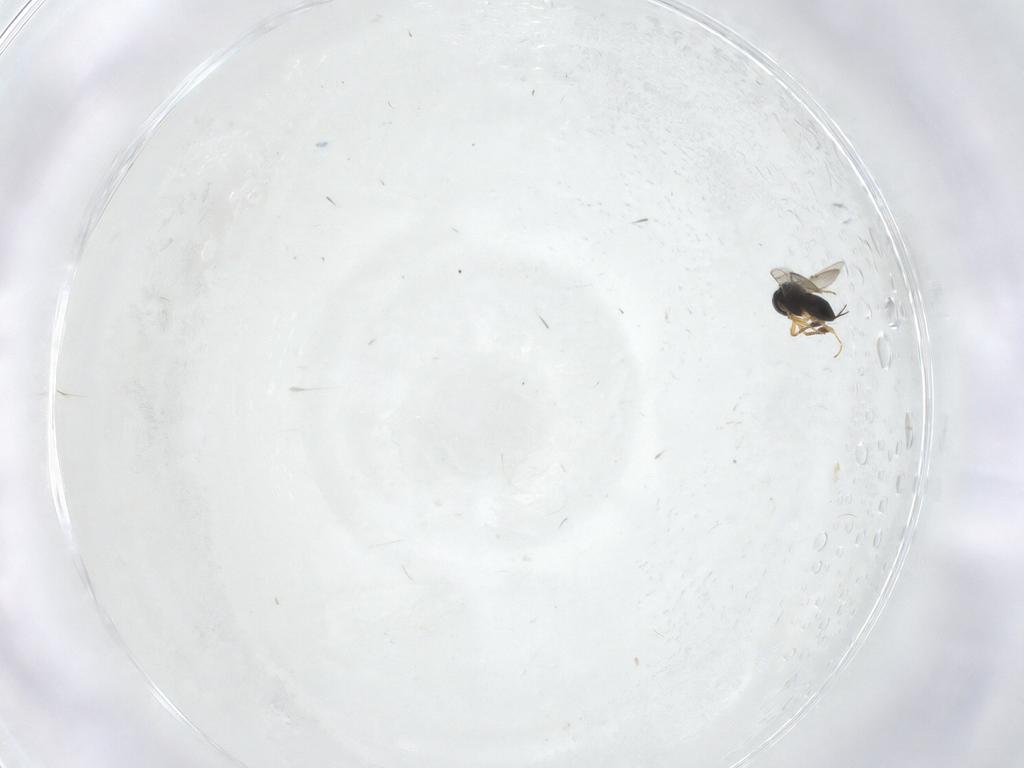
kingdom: Animalia
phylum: Arthropoda
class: Insecta
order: Hymenoptera
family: Scelionidae
